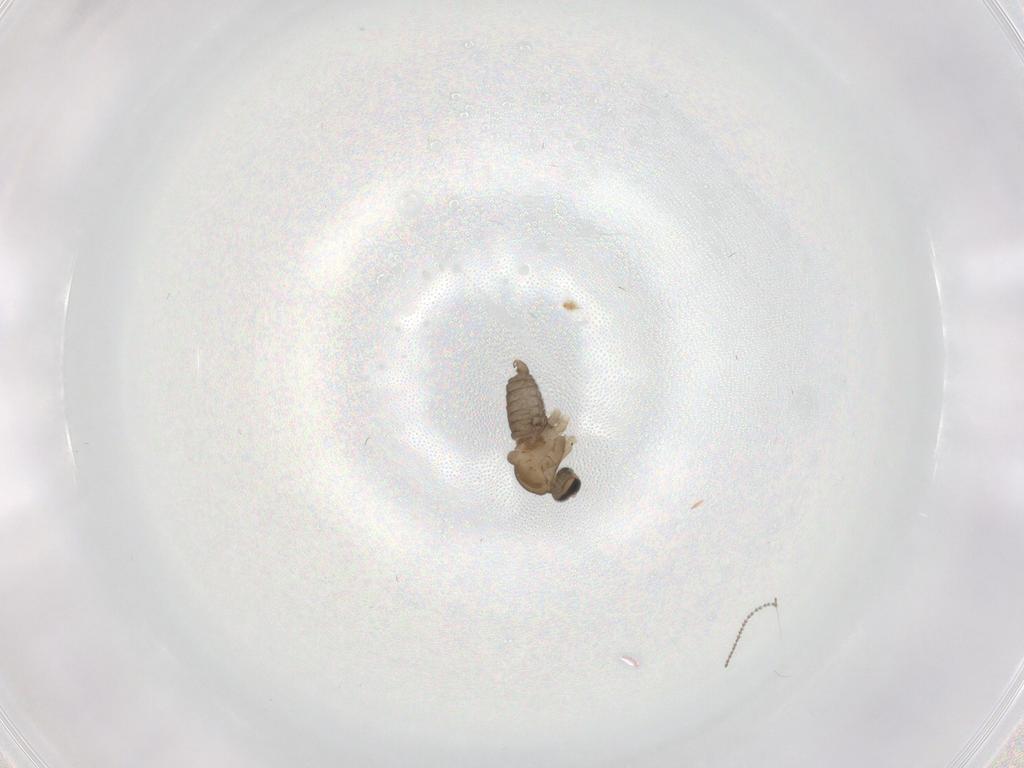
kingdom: Animalia
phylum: Arthropoda
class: Insecta
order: Diptera
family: Cecidomyiidae
